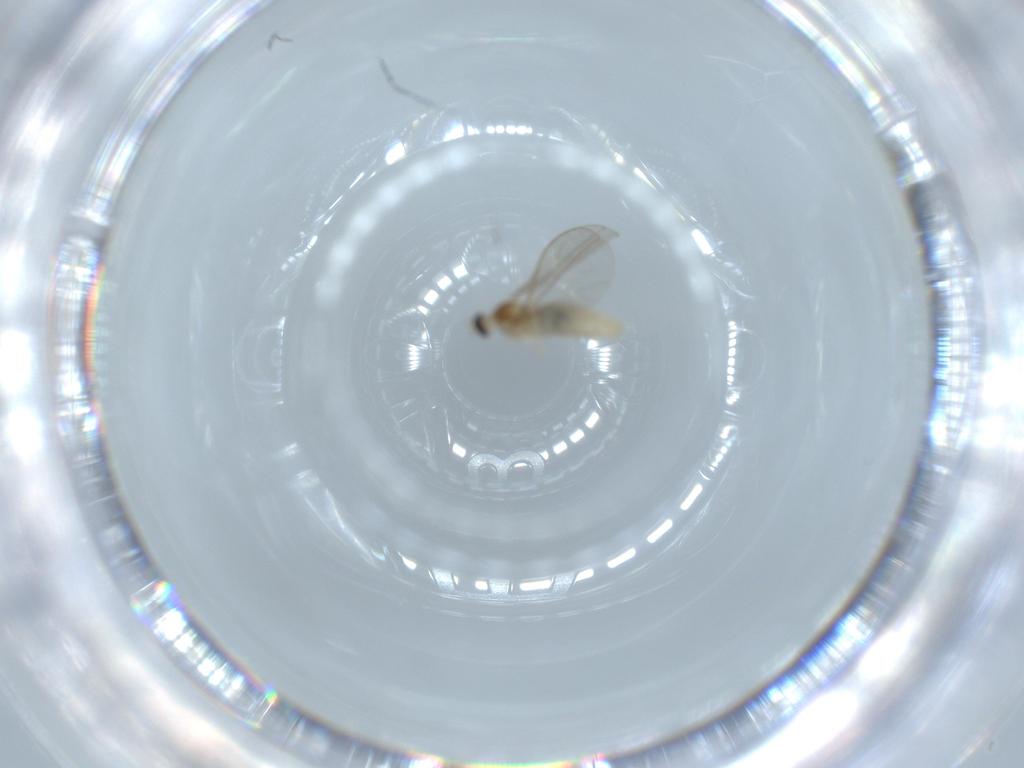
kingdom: Animalia
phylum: Arthropoda
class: Insecta
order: Diptera
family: Cecidomyiidae
